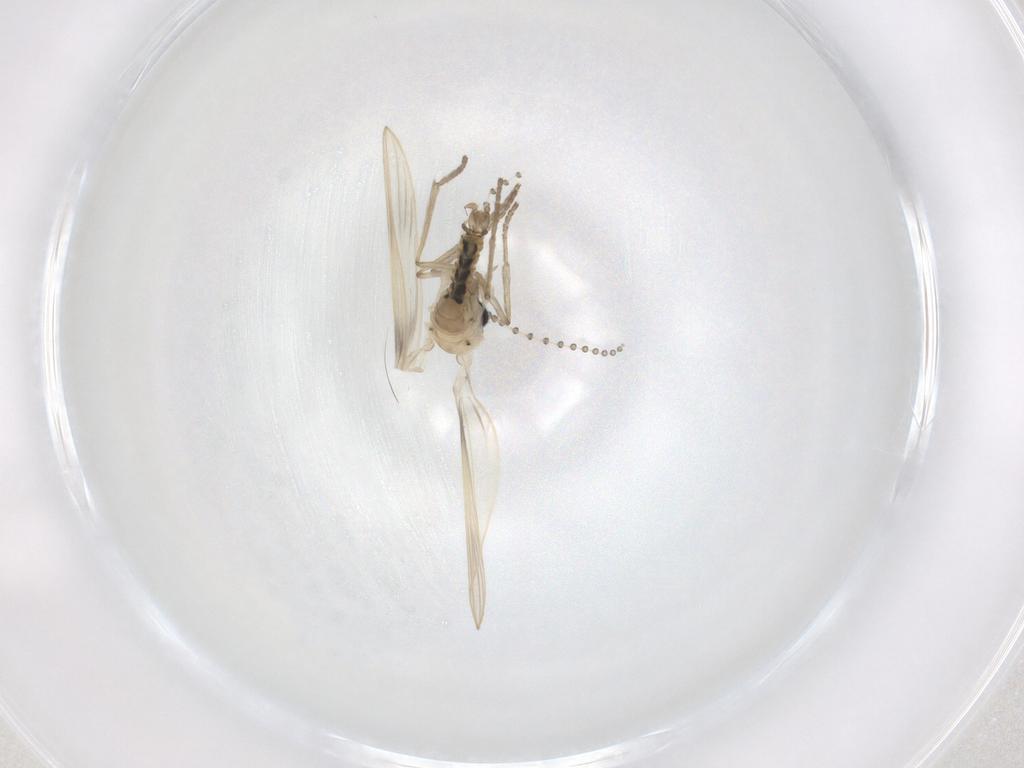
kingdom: Animalia
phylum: Arthropoda
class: Insecta
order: Diptera
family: Psychodidae
